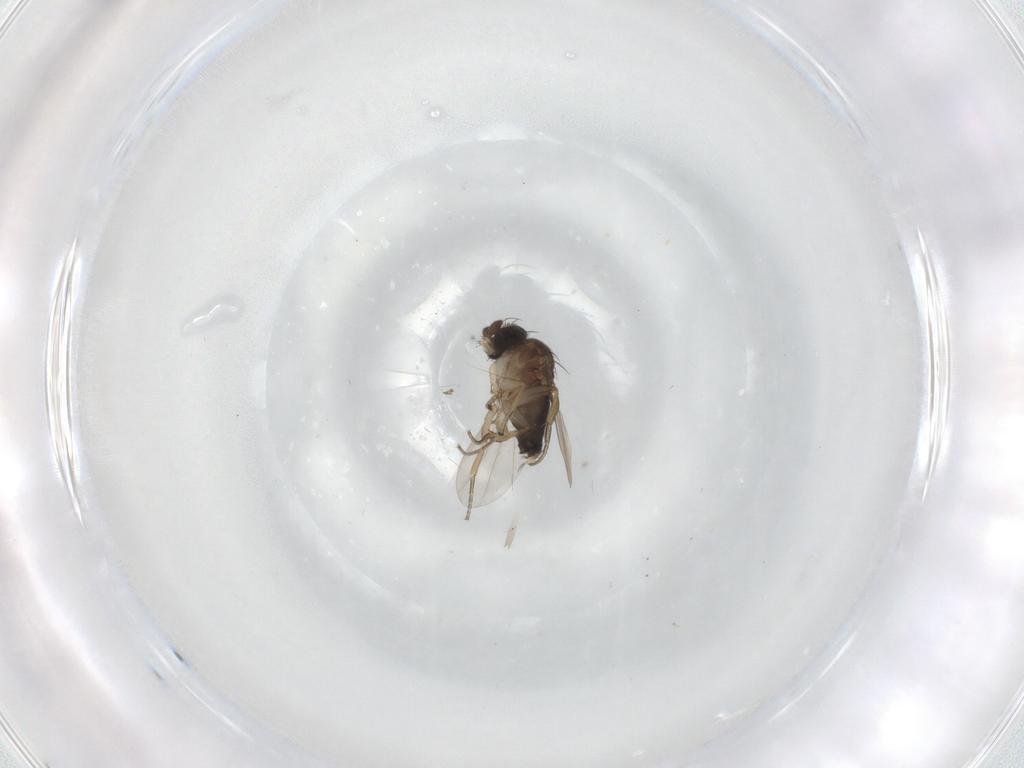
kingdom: Animalia
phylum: Arthropoda
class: Insecta
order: Diptera
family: Phoridae
